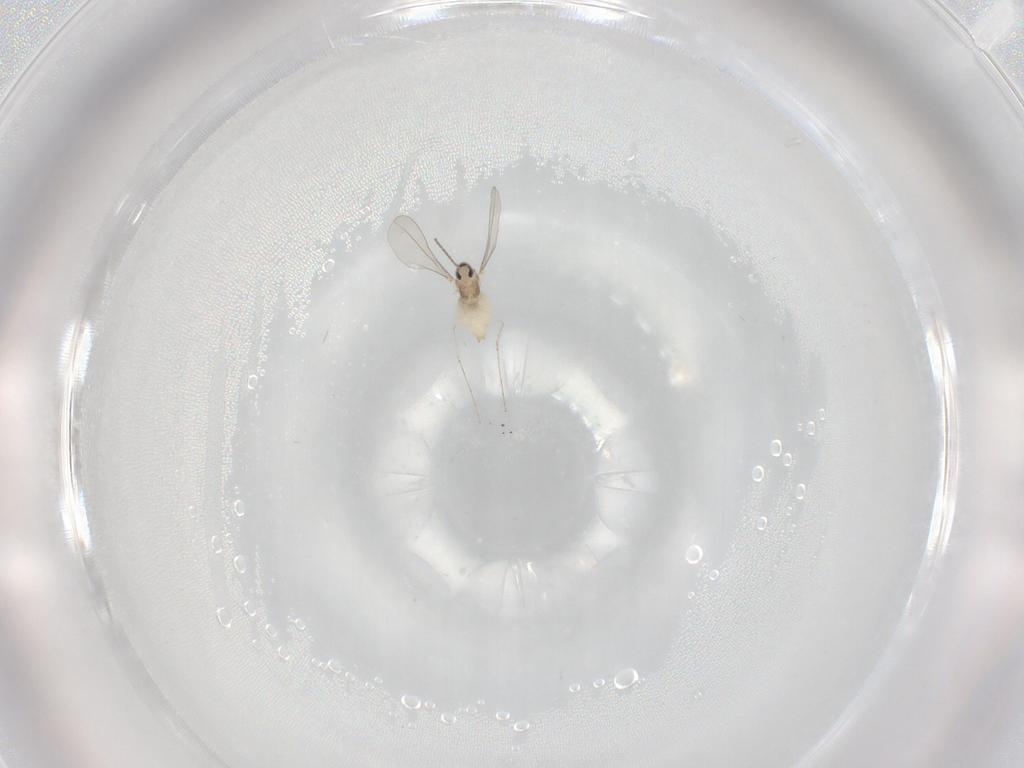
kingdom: Animalia
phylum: Arthropoda
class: Insecta
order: Diptera
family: Cecidomyiidae
